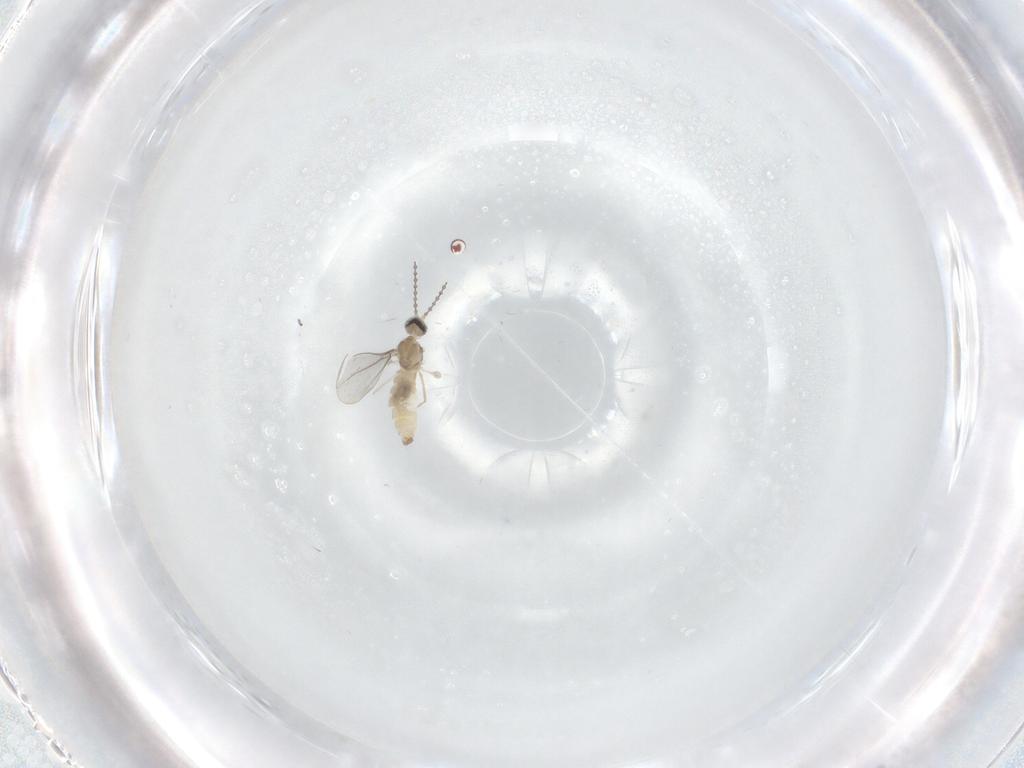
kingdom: Animalia
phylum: Arthropoda
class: Insecta
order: Diptera
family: Cecidomyiidae
